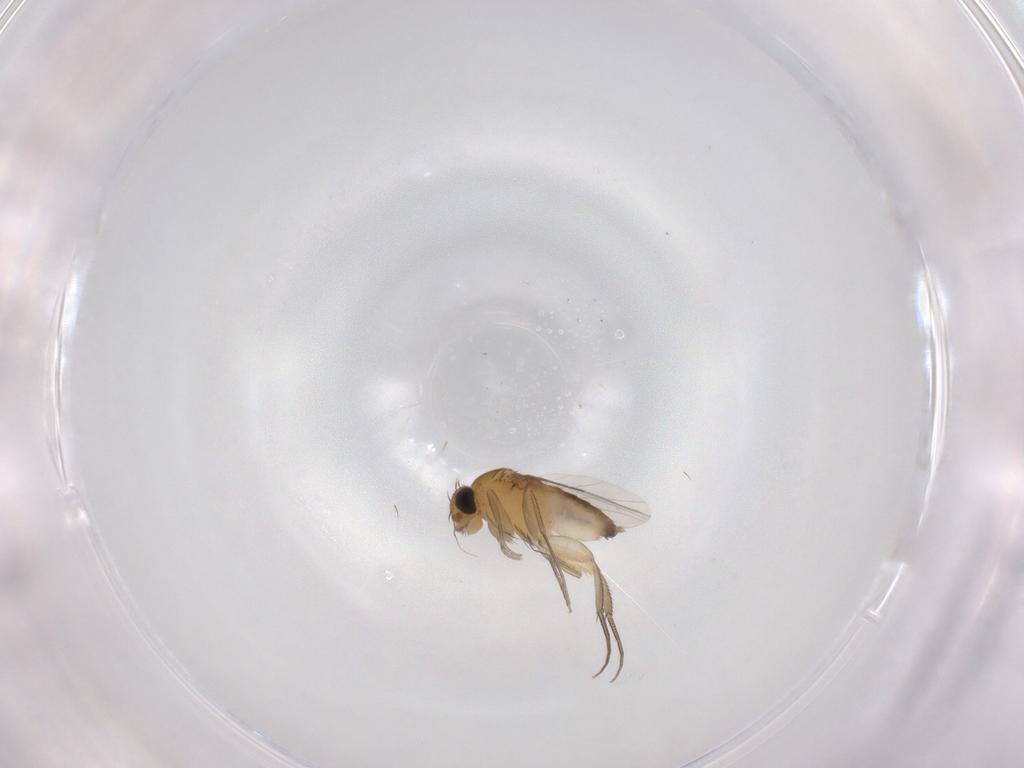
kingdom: Animalia
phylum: Arthropoda
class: Insecta
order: Diptera
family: Phoridae
